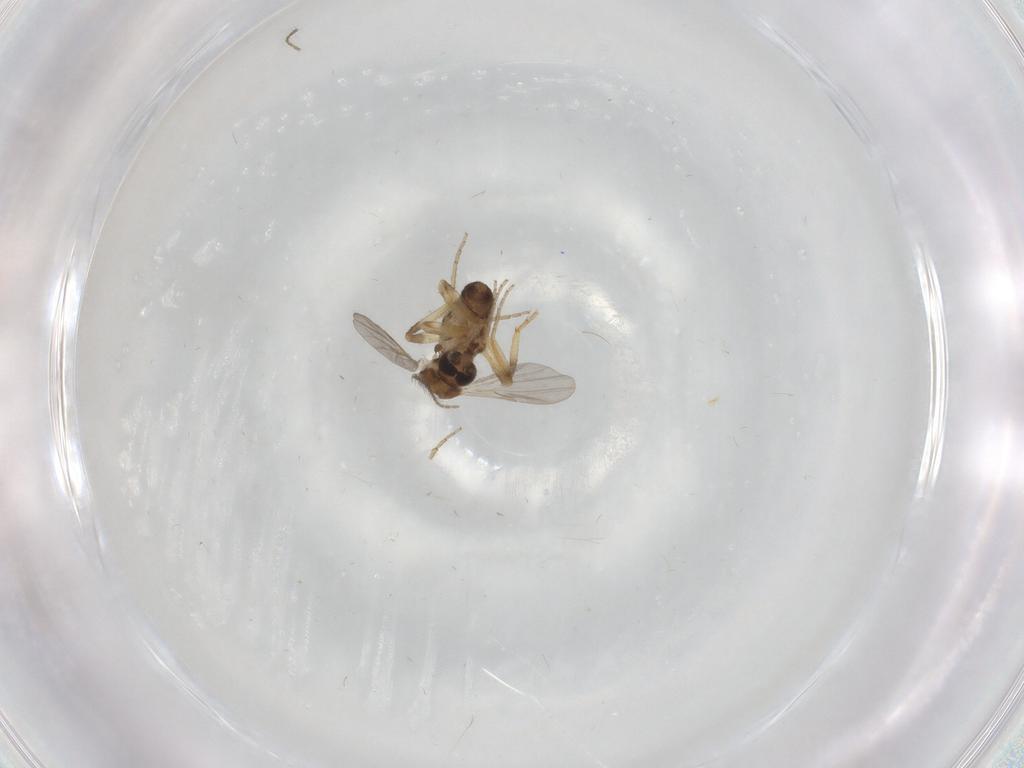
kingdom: Animalia
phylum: Arthropoda
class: Insecta
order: Diptera
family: Ceratopogonidae
